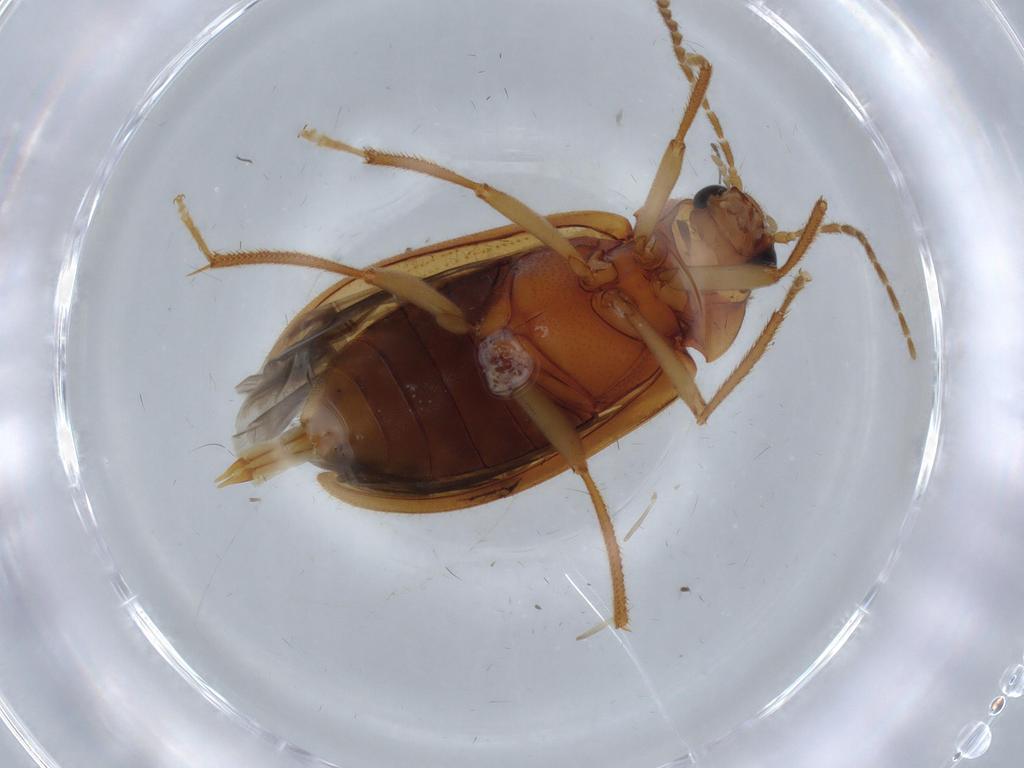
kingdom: Animalia
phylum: Arthropoda
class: Insecta
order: Coleoptera
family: Ptilodactylidae
